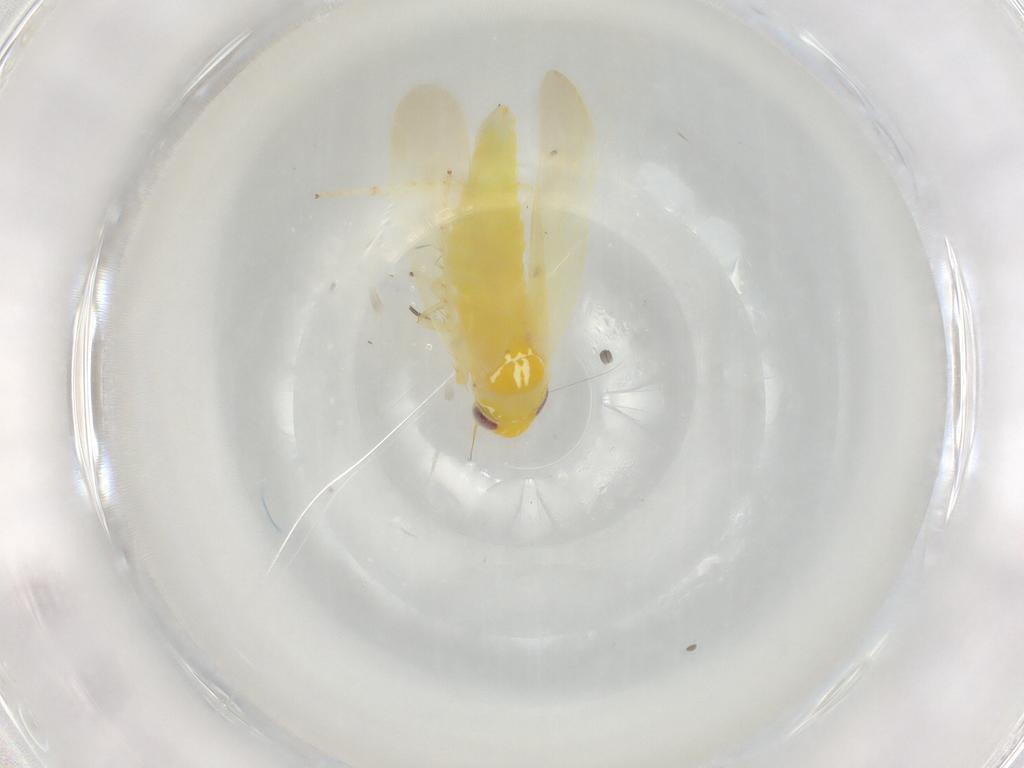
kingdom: Animalia
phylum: Arthropoda
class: Insecta
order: Hemiptera
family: Cicadellidae
